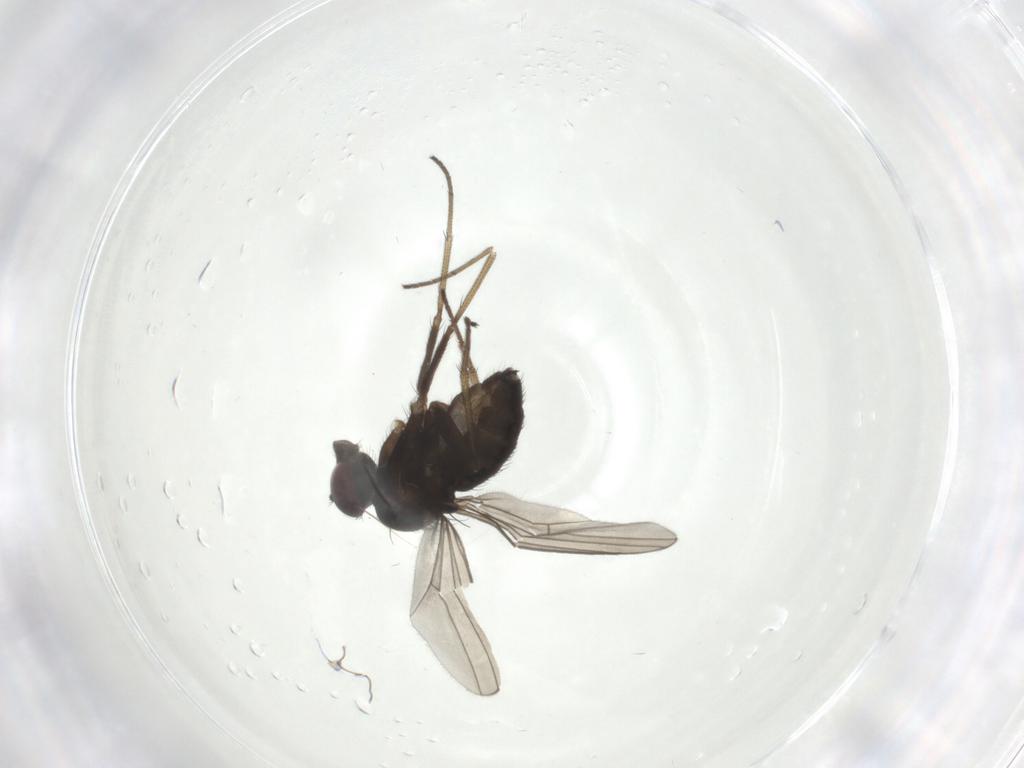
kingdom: Animalia
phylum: Arthropoda
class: Insecta
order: Diptera
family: Dolichopodidae
